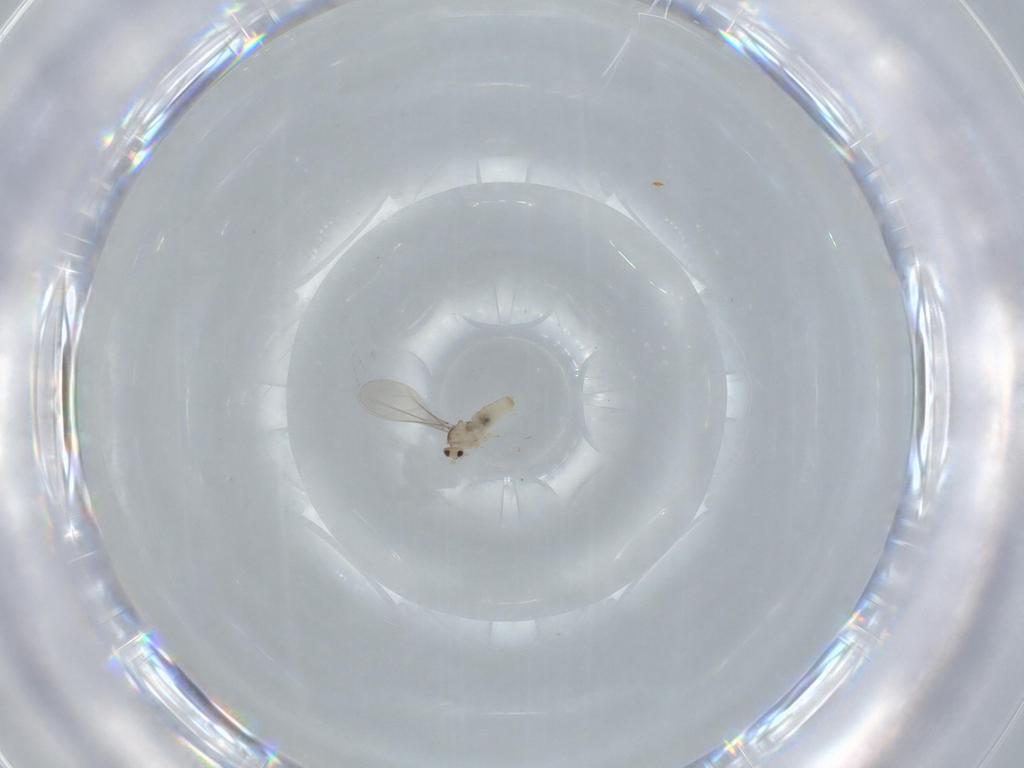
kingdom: Animalia
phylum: Arthropoda
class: Insecta
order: Diptera
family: Cecidomyiidae
